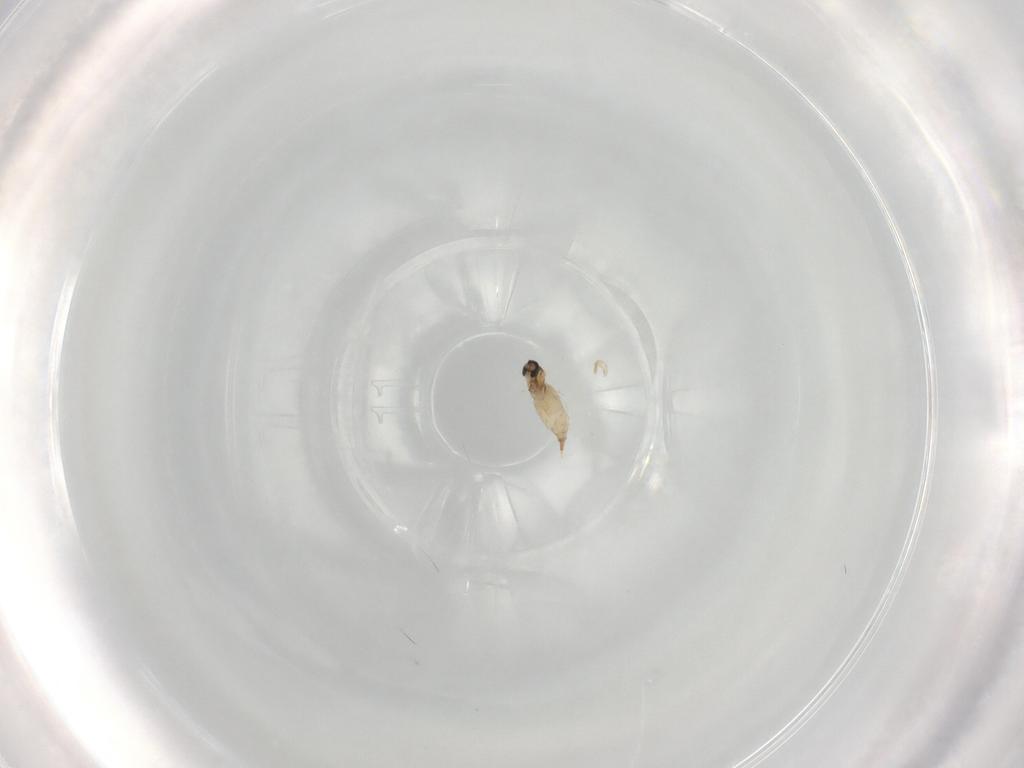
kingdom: Animalia
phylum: Arthropoda
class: Insecta
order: Diptera
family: Cecidomyiidae
